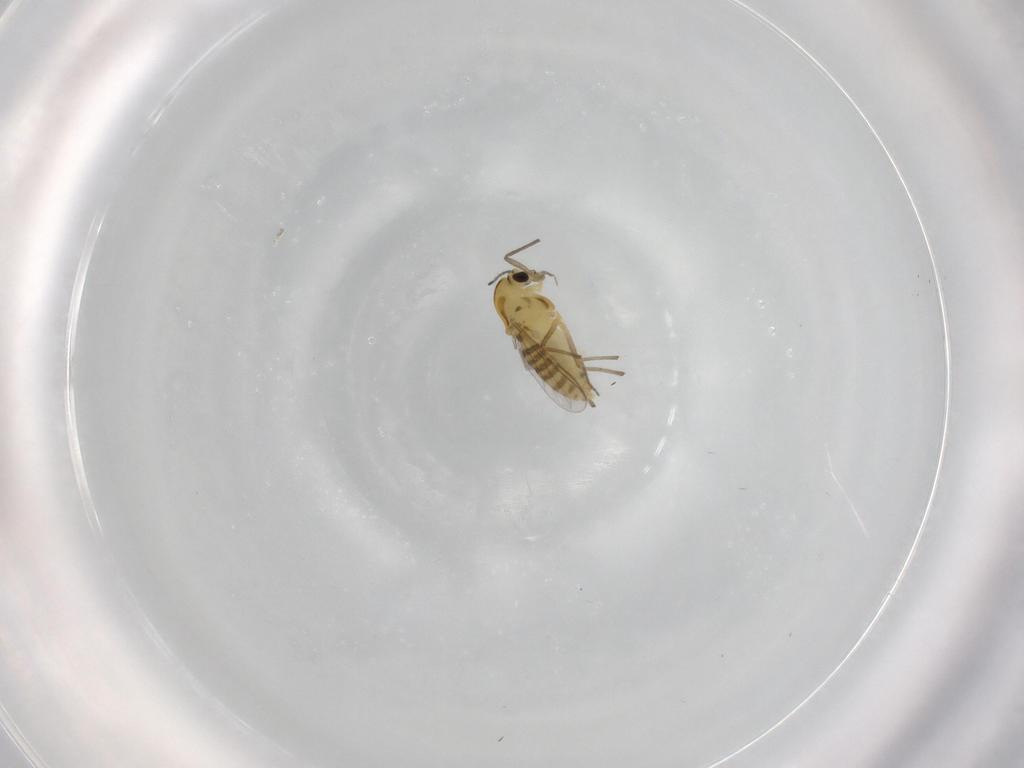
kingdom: Animalia
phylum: Arthropoda
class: Insecta
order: Diptera
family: Chironomidae
